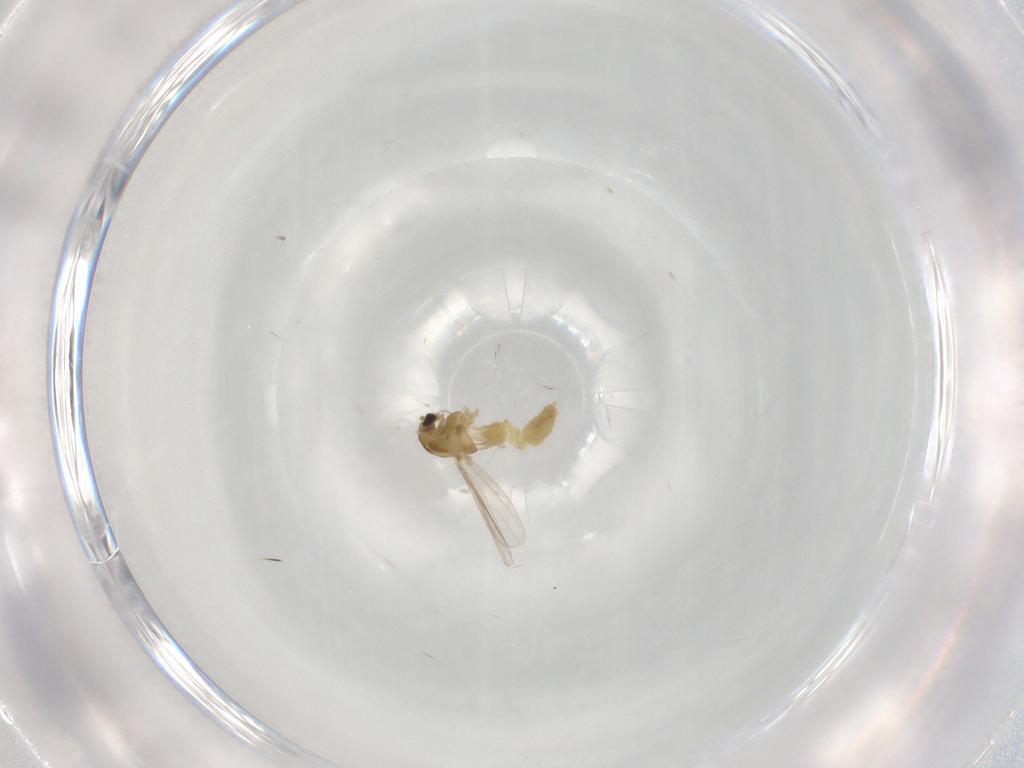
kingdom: Animalia
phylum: Arthropoda
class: Insecta
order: Diptera
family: Chironomidae
